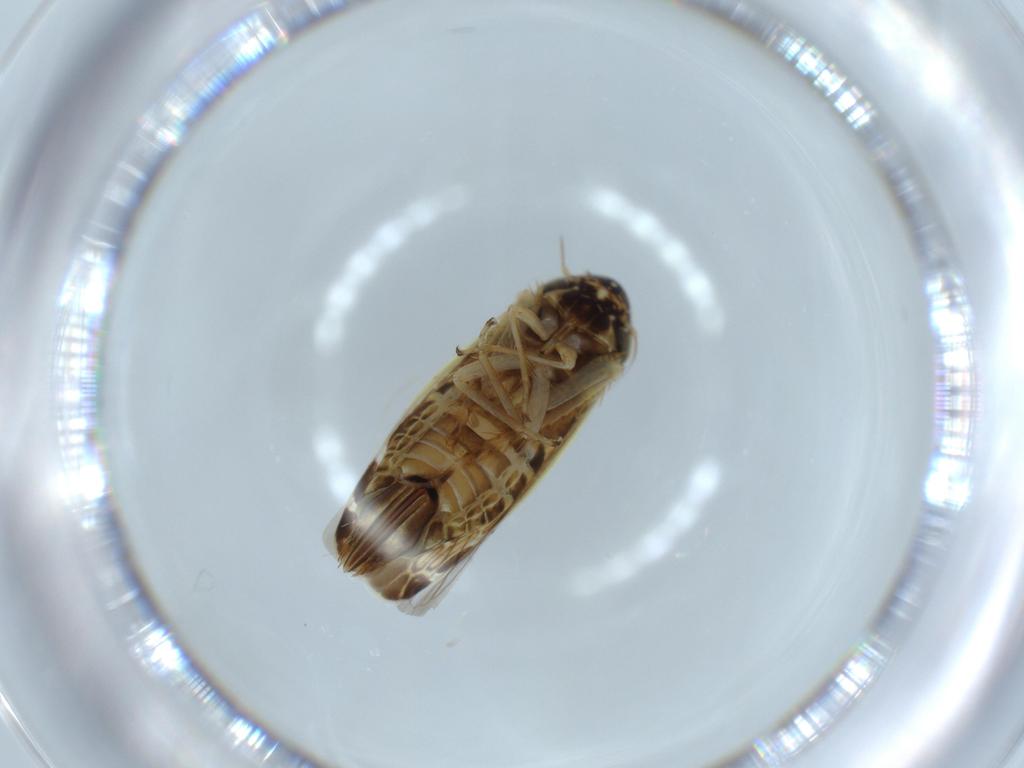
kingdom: Animalia
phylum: Arthropoda
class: Insecta
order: Hemiptera
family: Cicadellidae
